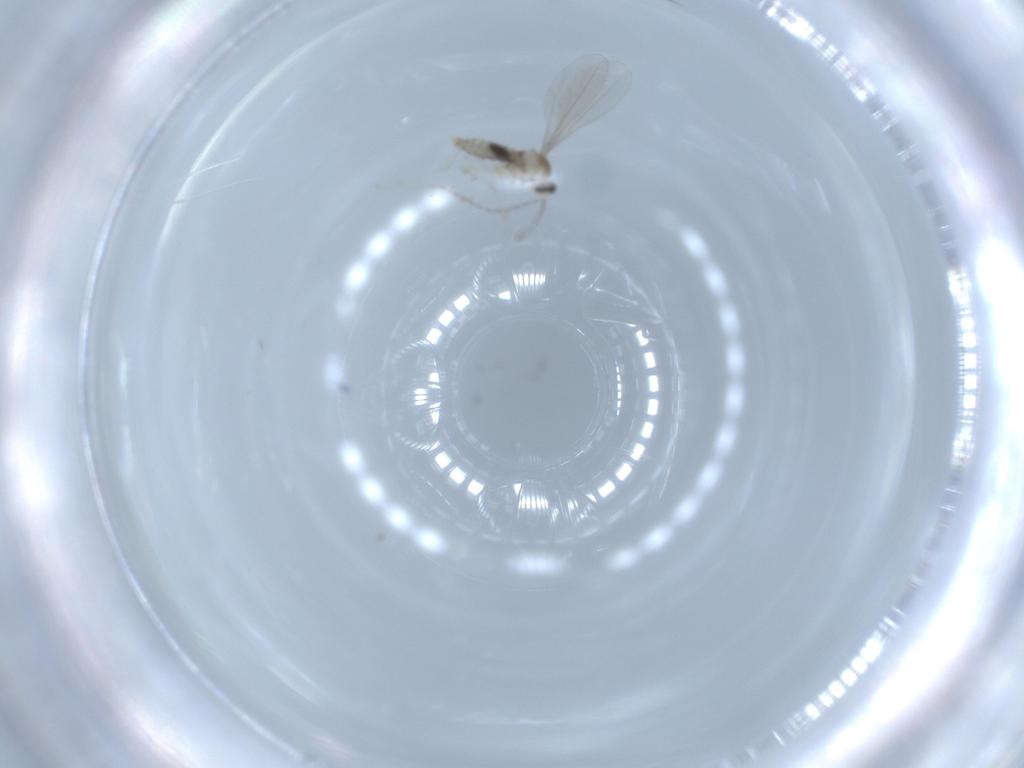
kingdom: Animalia
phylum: Arthropoda
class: Insecta
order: Diptera
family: Cecidomyiidae
